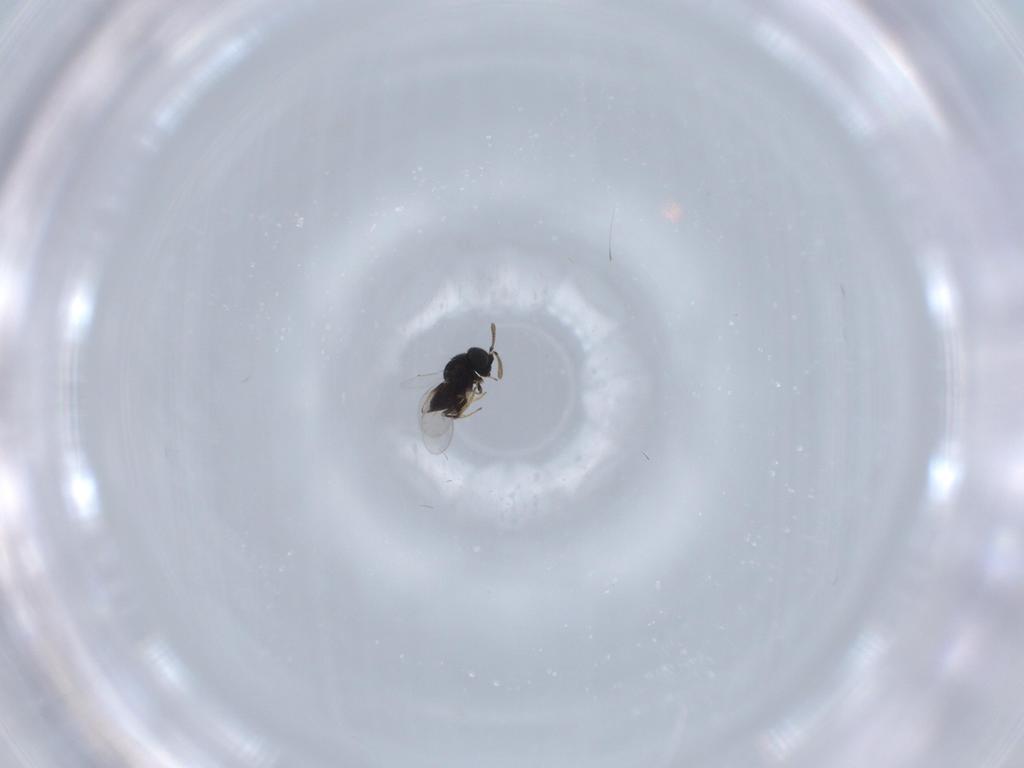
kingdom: Animalia
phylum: Arthropoda
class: Insecta
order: Hymenoptera
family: Encyrtidae
